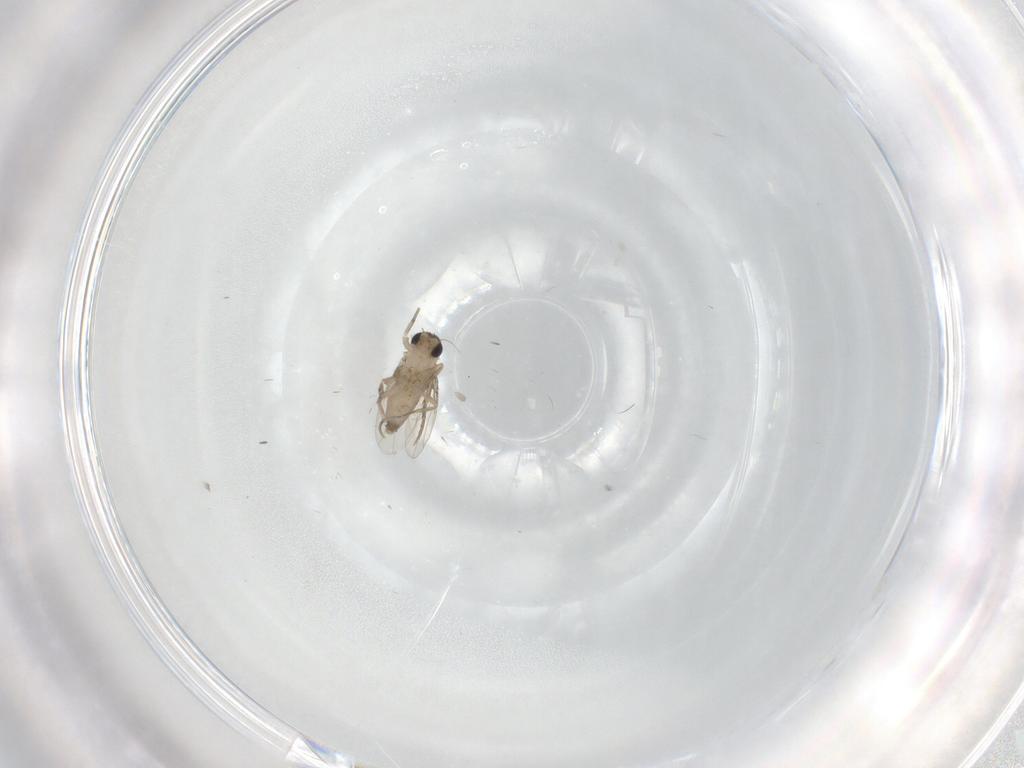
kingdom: Animalia
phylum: Arthropoda
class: Insecta
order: Diptera
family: Phoridae
